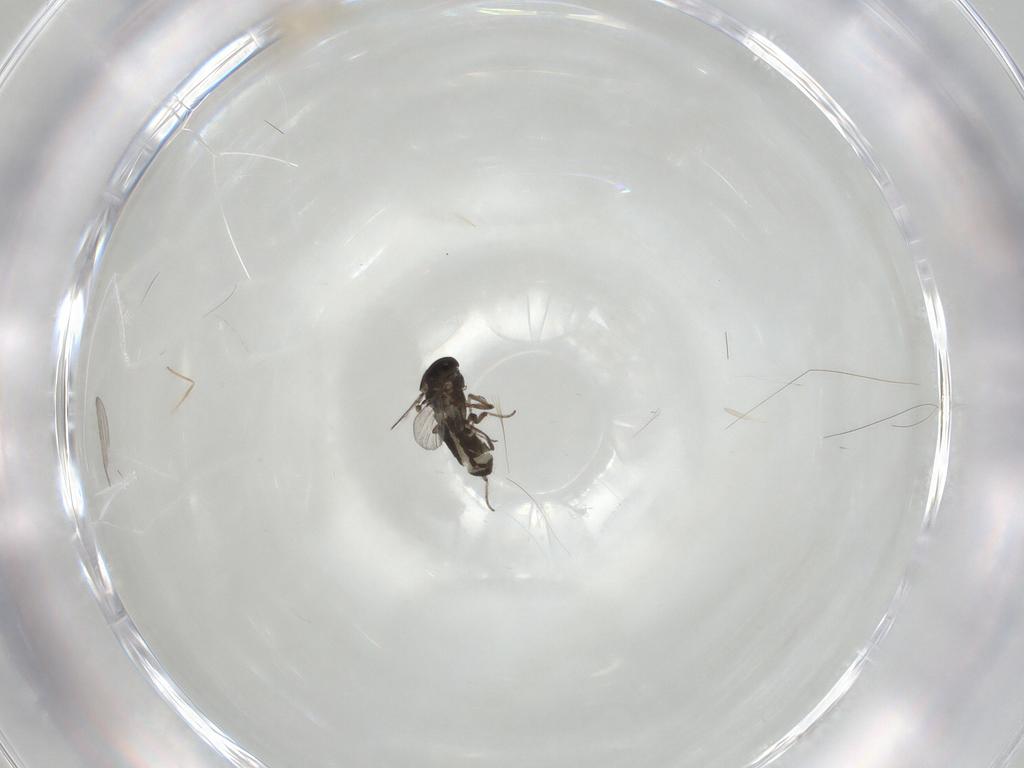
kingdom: Animalia
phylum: Arthropoda
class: Insecta
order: Diptera
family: Ceratopogonidae
